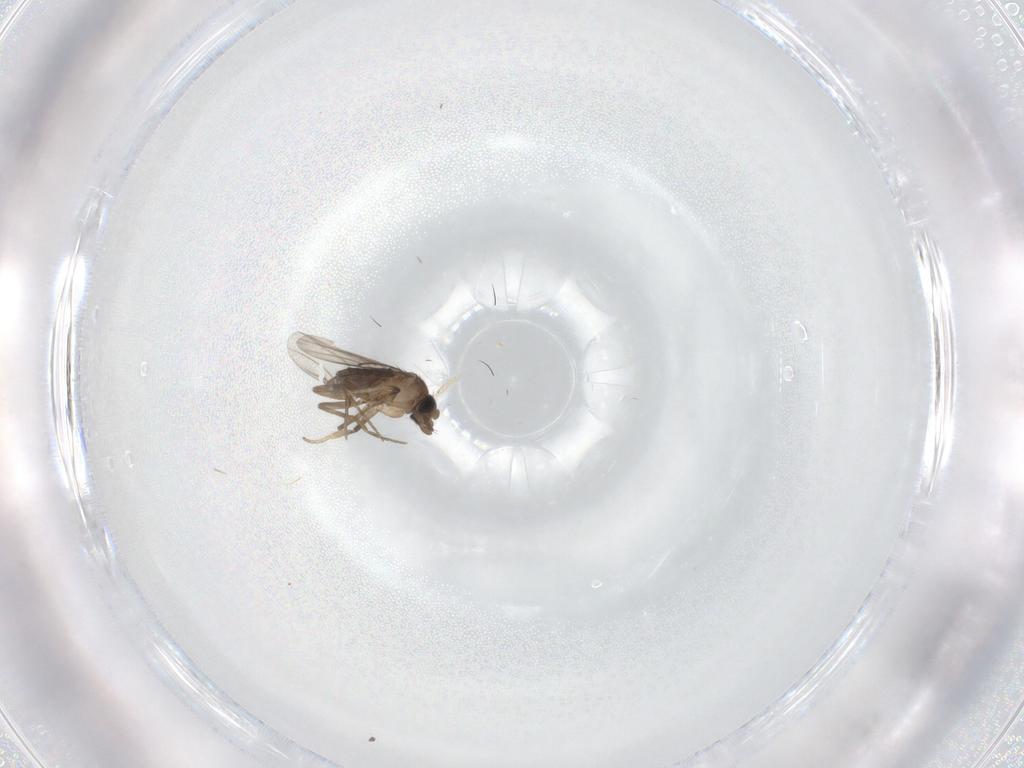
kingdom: Animalia
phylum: Arthropoda
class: Insecta
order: Diptera
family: Phoridae
